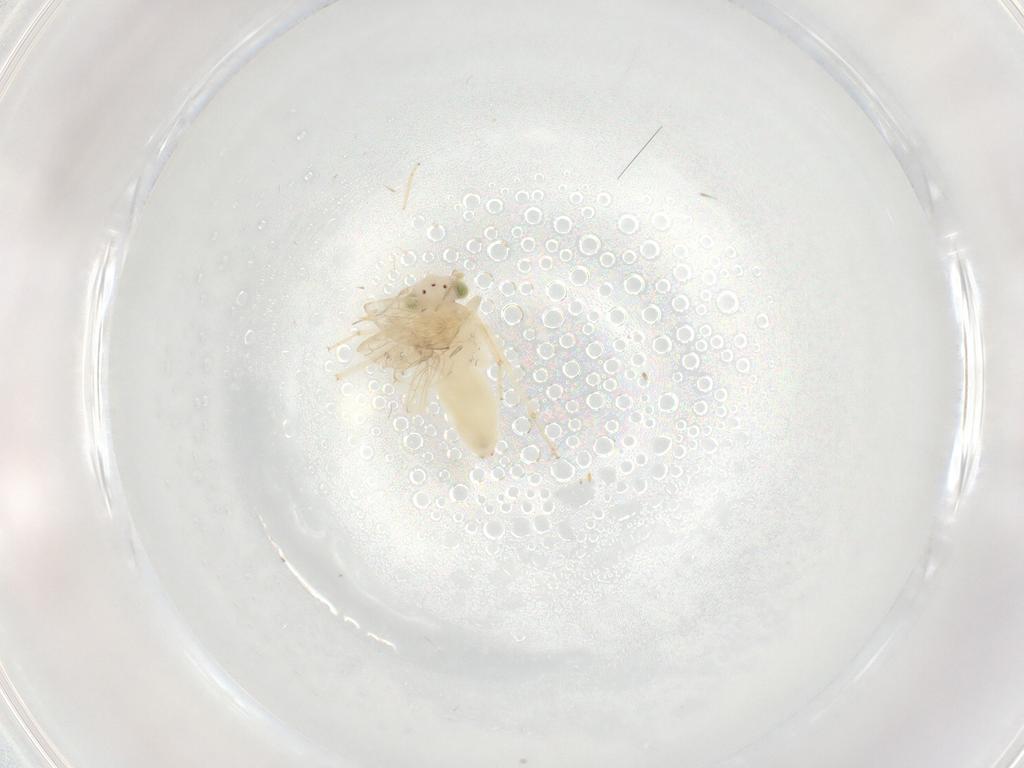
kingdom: Animalia
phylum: Arthropoda
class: Insecta
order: Psocodea
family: Lepidopsocidae
